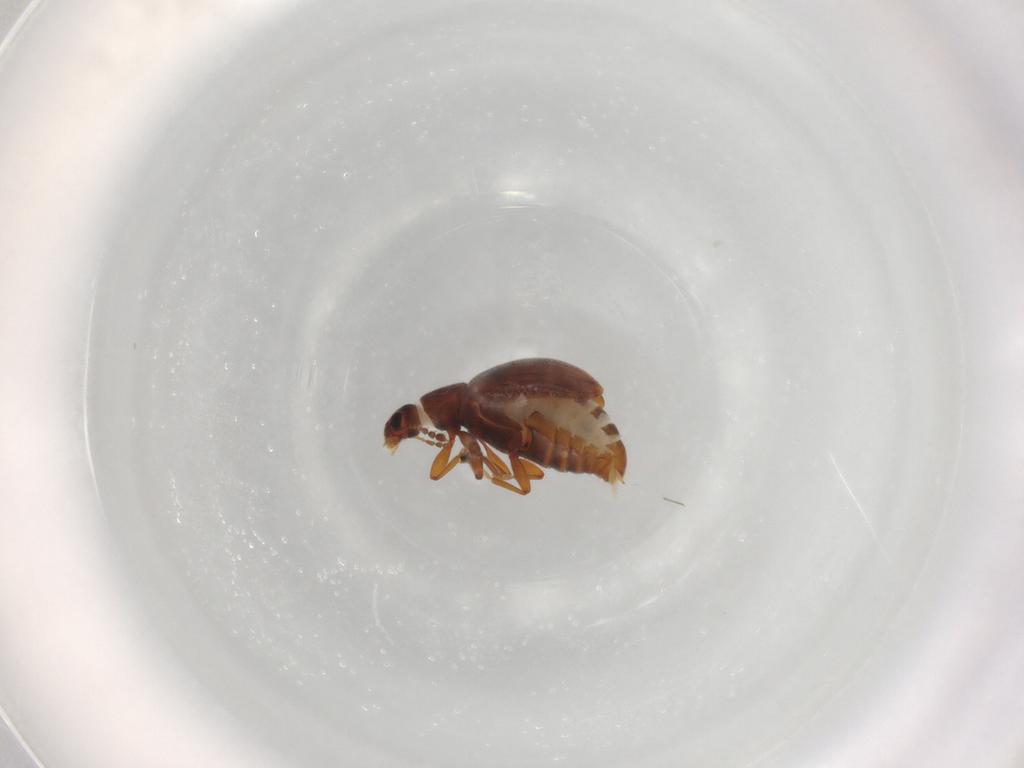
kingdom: Animalia
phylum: Arthropoda
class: Insecta
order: Coleoptera
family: Latridiidae
